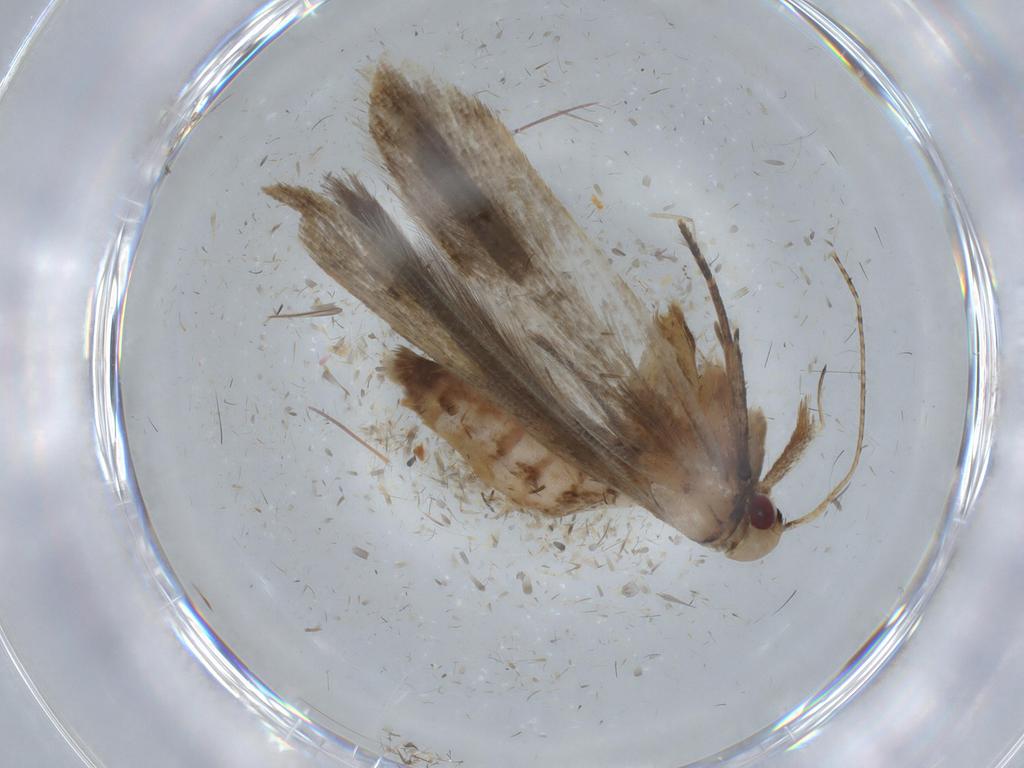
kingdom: Animalia
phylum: Arthropoda
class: Insecta
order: Lepidoptera
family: Gelechiidae
